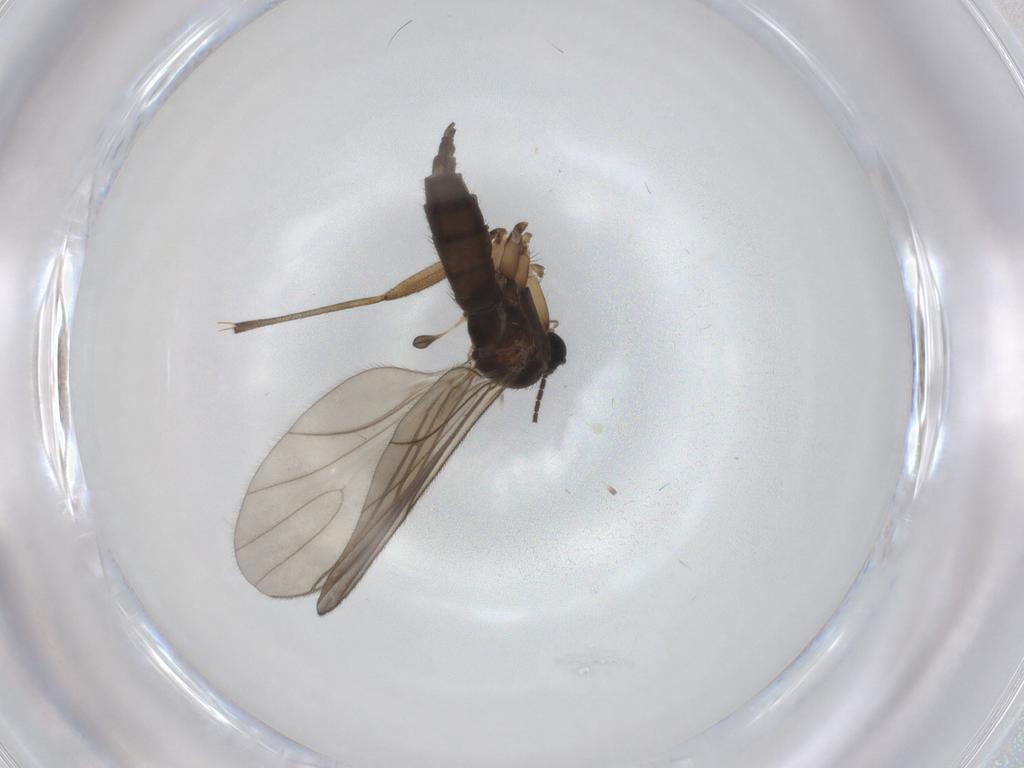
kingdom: Animalia
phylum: Arthropoda
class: Insecta
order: Diptera
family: Sciaridae
